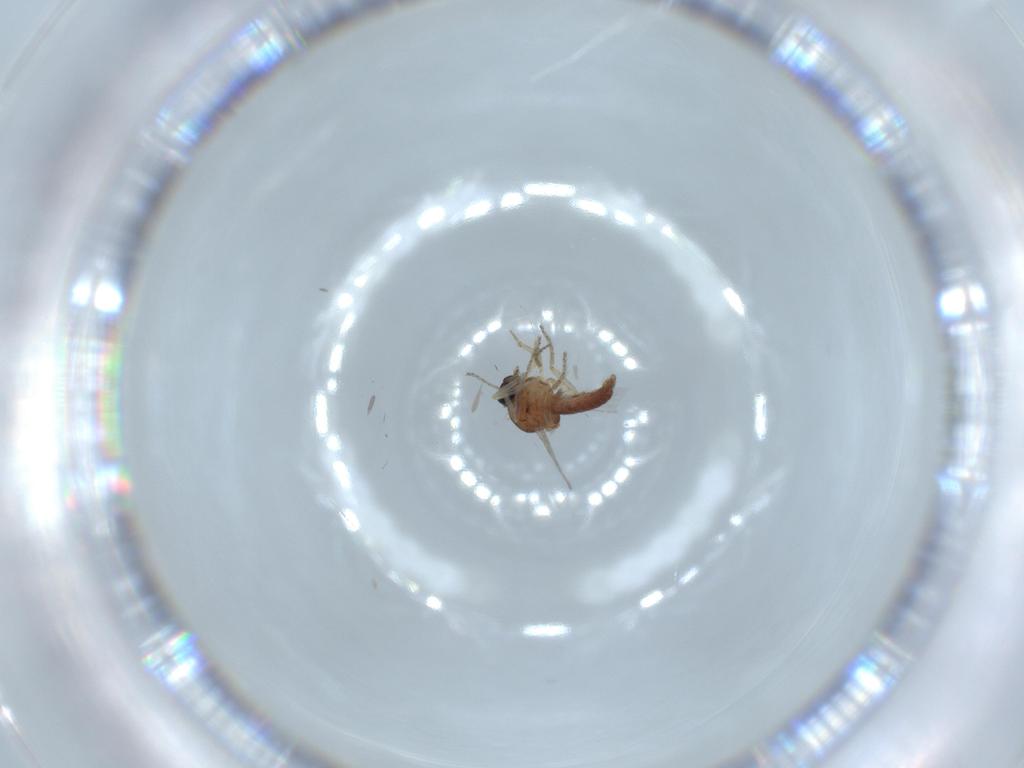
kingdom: Animalia
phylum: Arthropoda
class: Insecta
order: Diptera
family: Ceratopogonidae
